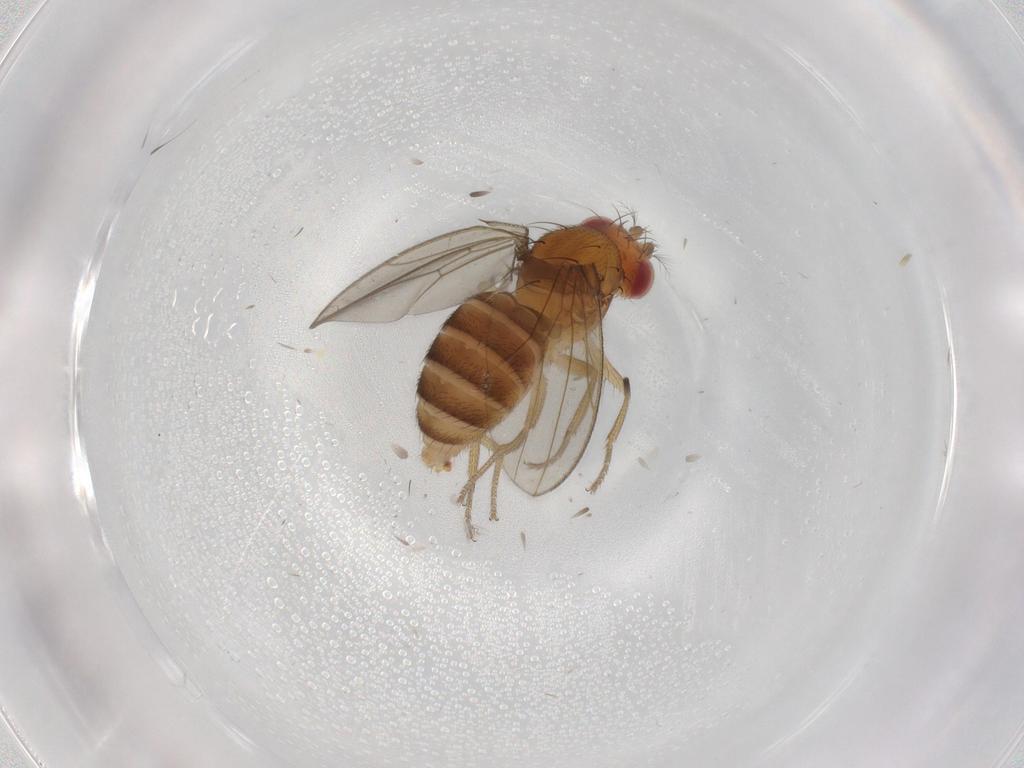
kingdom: Animalia
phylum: Arthropoda
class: Insecta
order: Diptera
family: Drosophilidae
